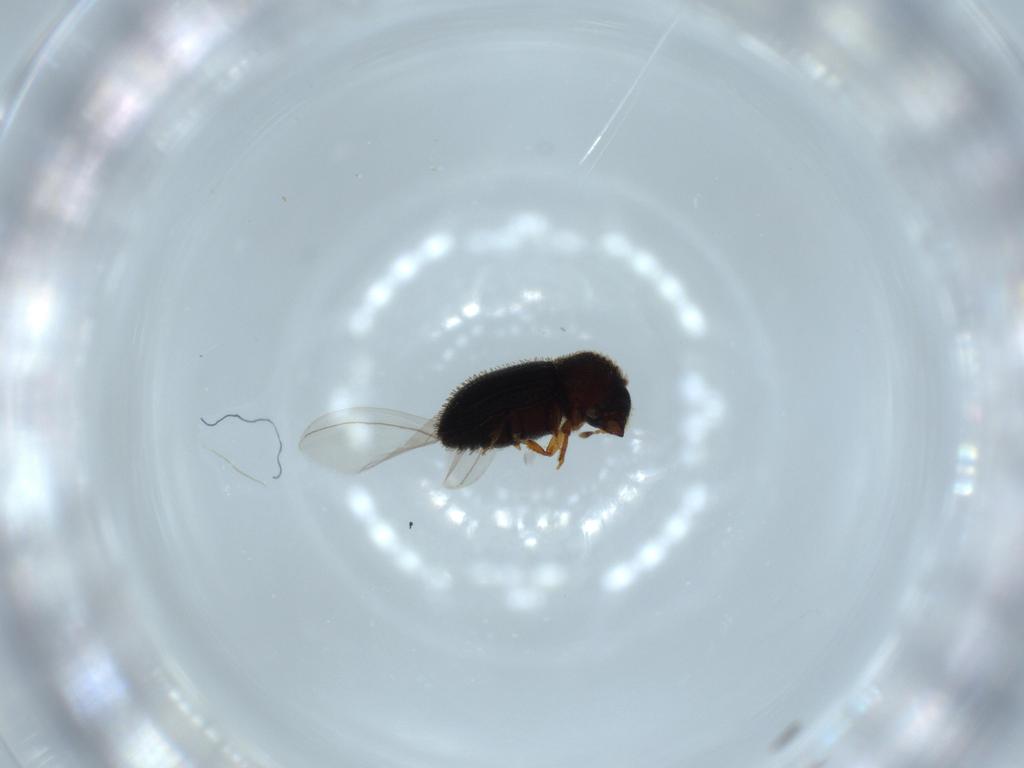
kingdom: Animalia
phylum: Arthropoda
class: Insecta
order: Coleoptera
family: Curculionidae
